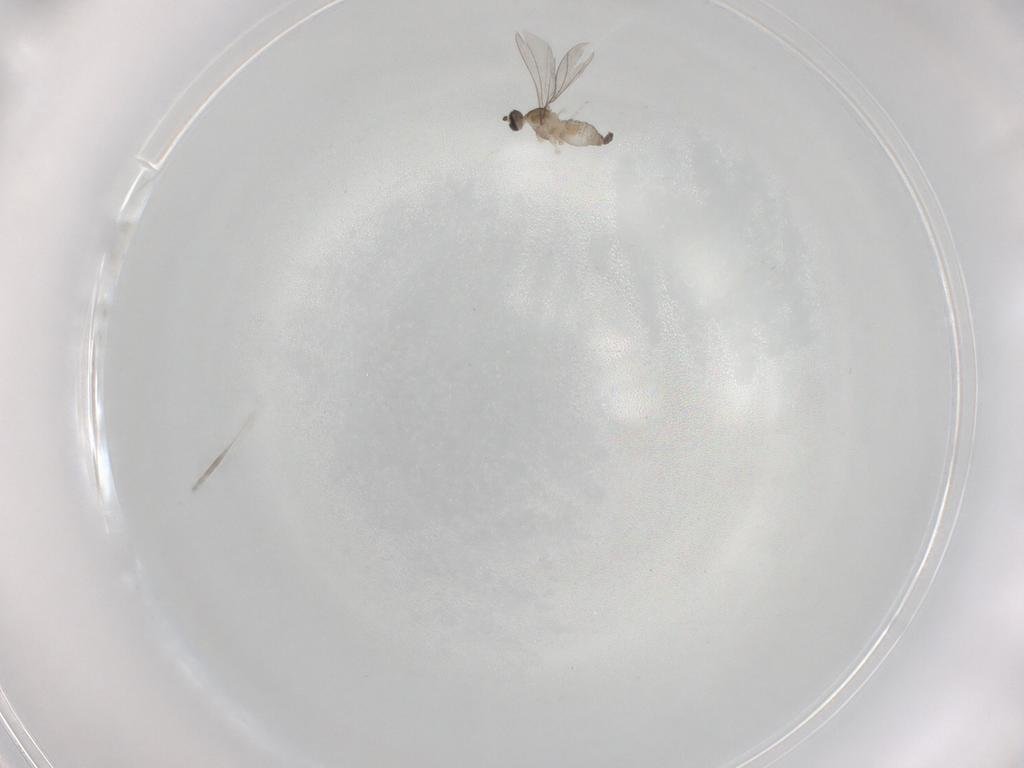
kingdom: Animalia
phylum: Arthropoda
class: Insecta
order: Diptera
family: Cecidomyiidae
